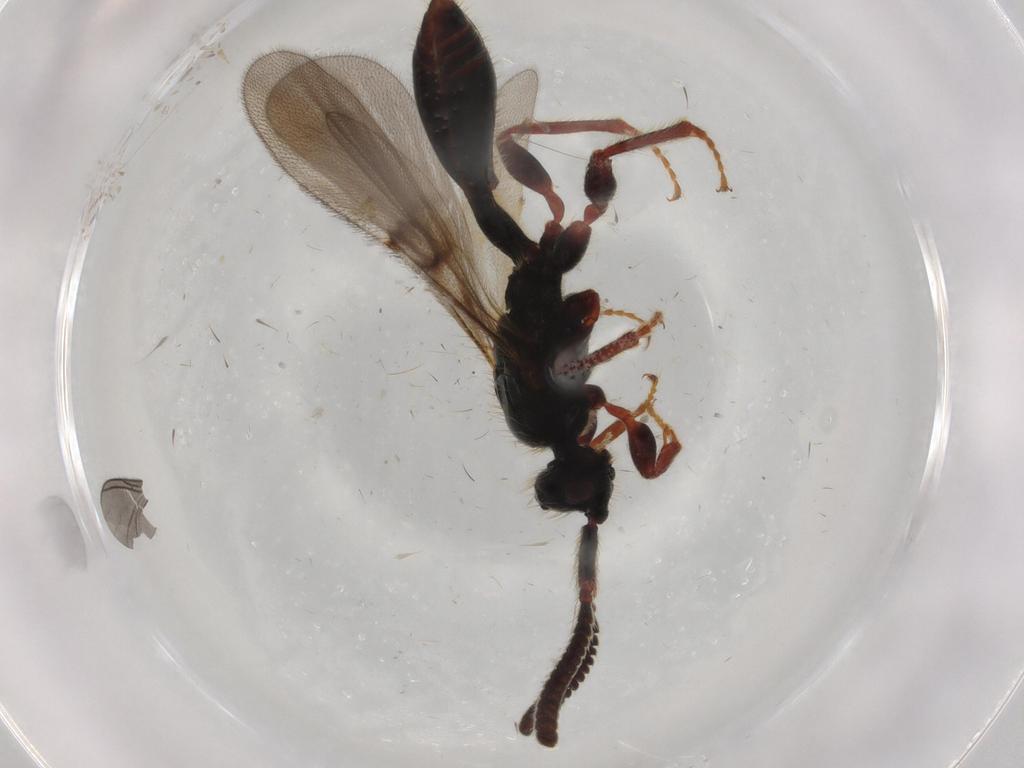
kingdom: Animalia
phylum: Arthropoda
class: Insecta
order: Hymenoptera
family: Diapriidae
